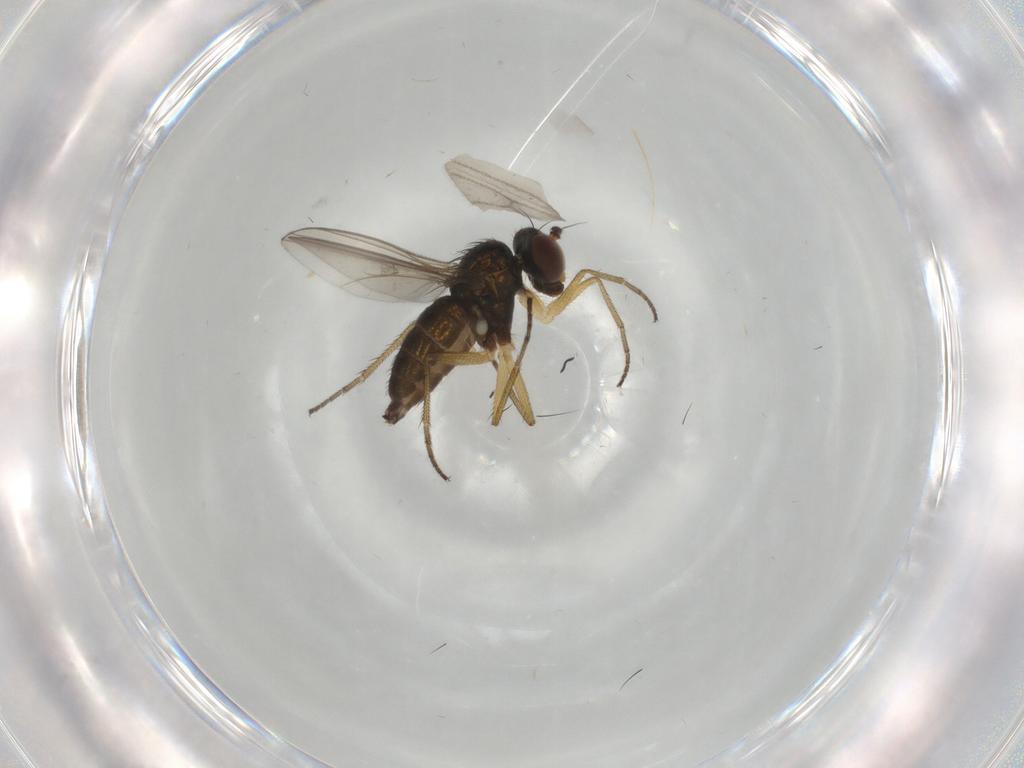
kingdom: Animalia
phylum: Arthropoda
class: Insecta
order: Diptera
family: Dolichopodidae
